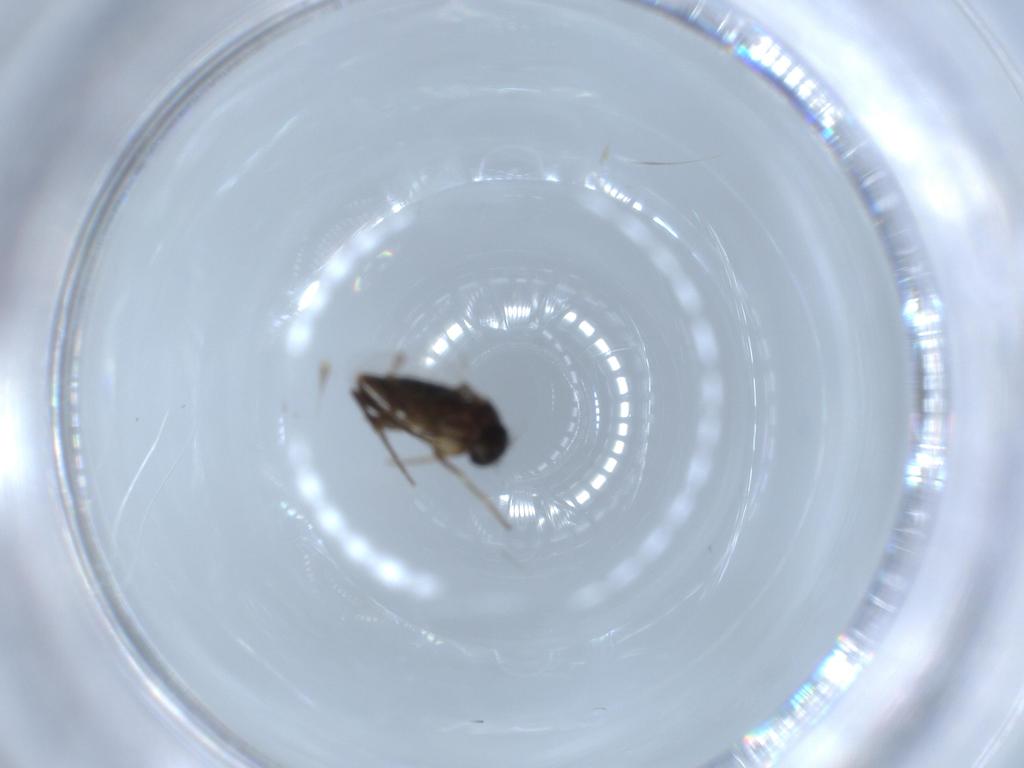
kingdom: Animalia
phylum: Arthropoda
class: Insecta
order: Diptera
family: Phoridae
